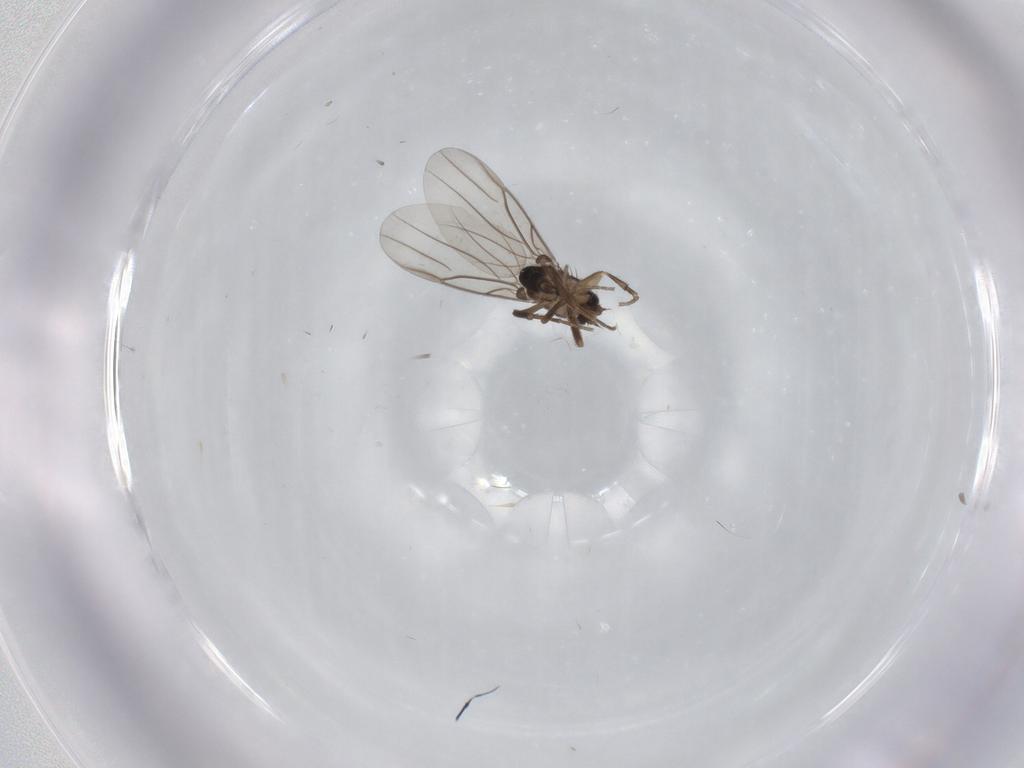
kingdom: Animalia
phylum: Arthropoda
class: Insecta
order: Diptera
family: Phoridae
